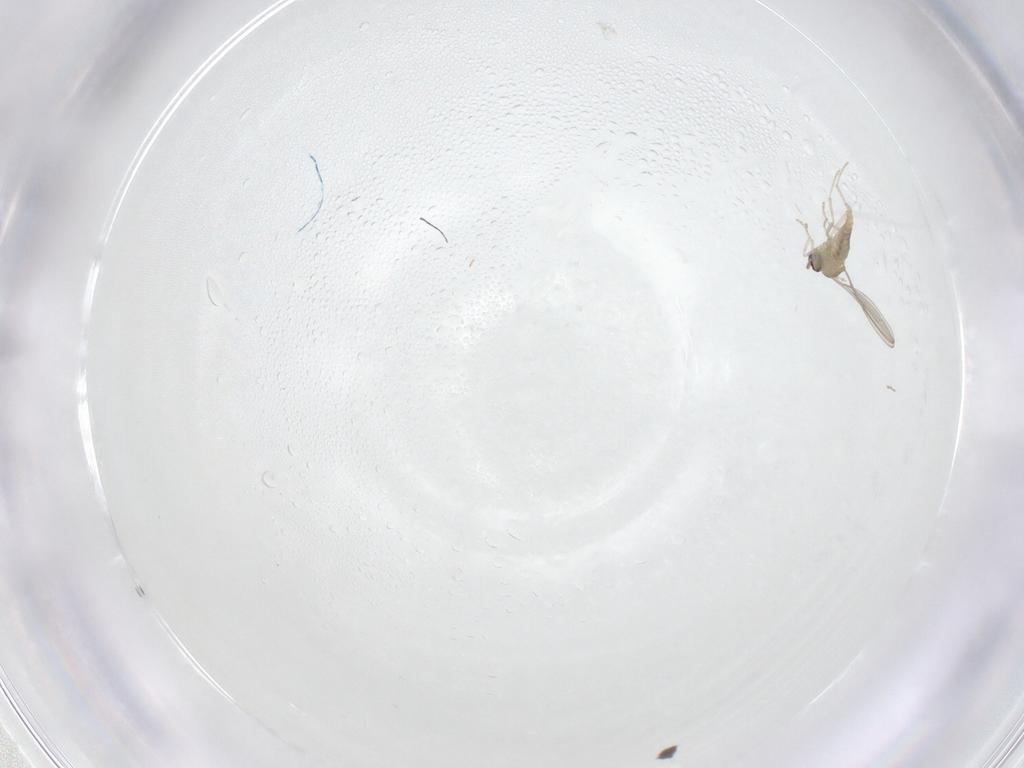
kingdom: Animalia
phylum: Arthropoda
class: Insecta
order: Diptera
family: Cecidomyiidae
